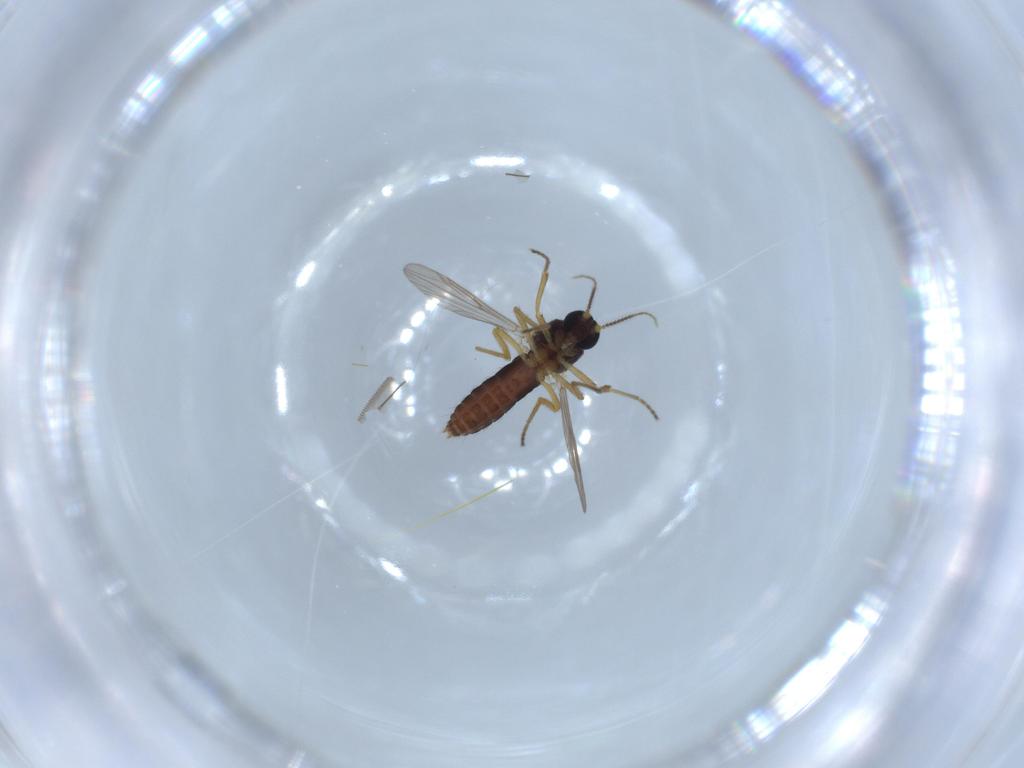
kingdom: Animalia
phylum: Arthropoda
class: Insecta
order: Diptera
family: Ceratopogonidae
